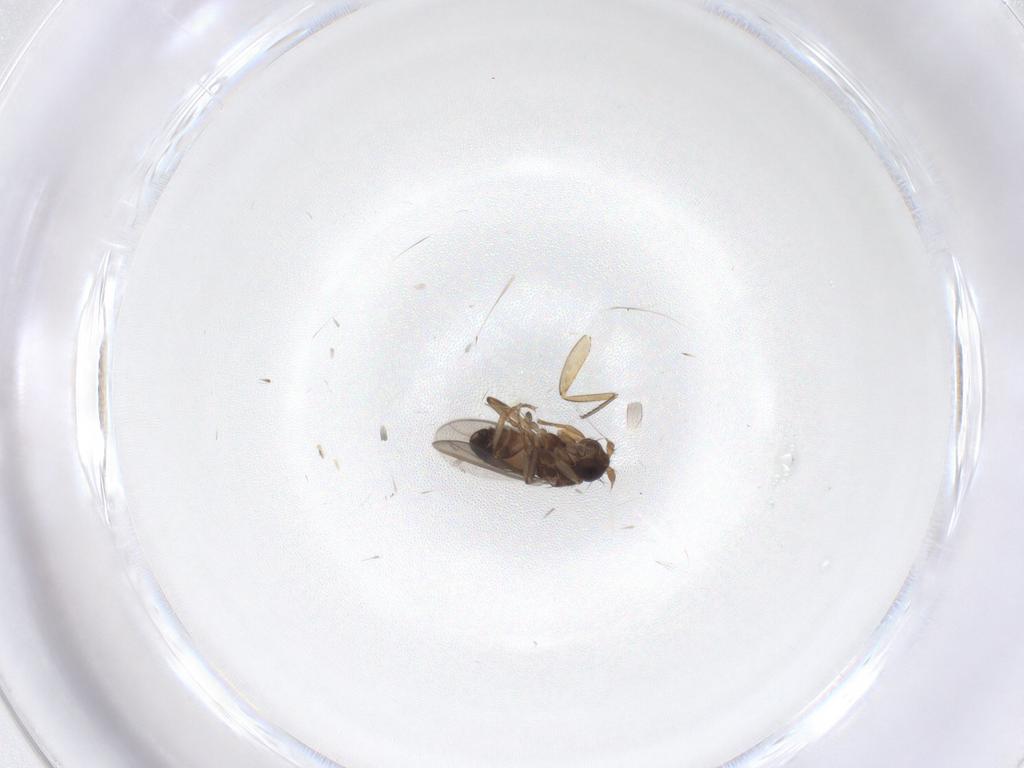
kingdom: Animalia
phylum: Arthropoda
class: Insecta
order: Diptera
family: Sphaeroceridae
